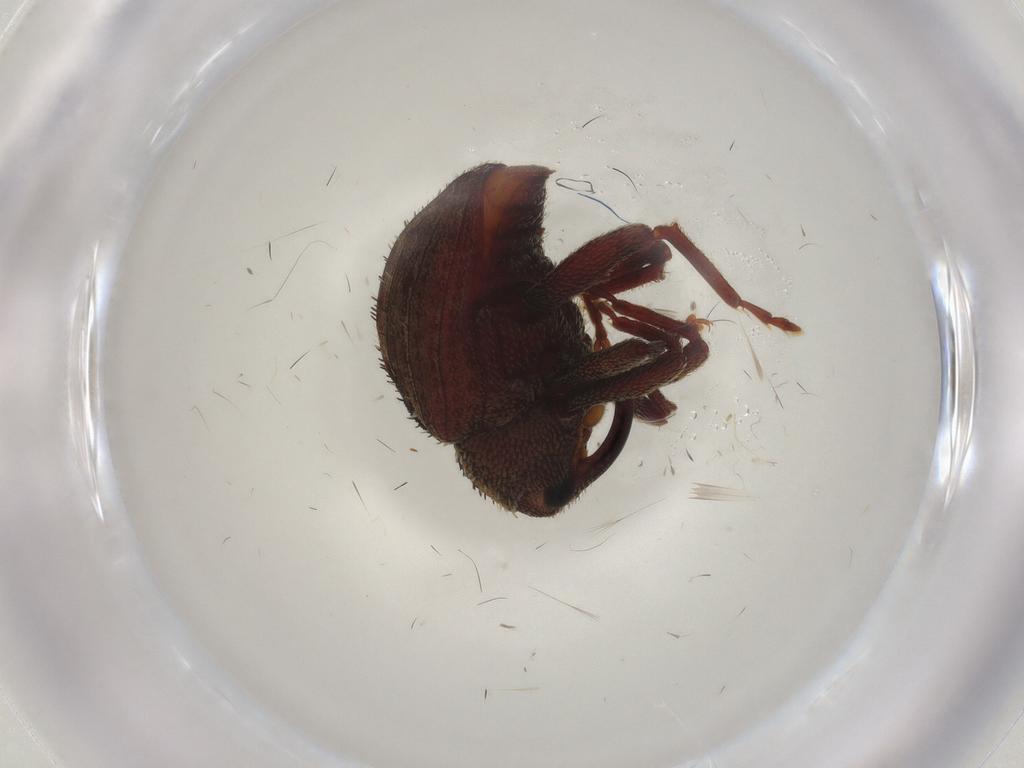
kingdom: Animalia
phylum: Arthropoda
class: Insecta
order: Coleoptera
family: Curculionidae
